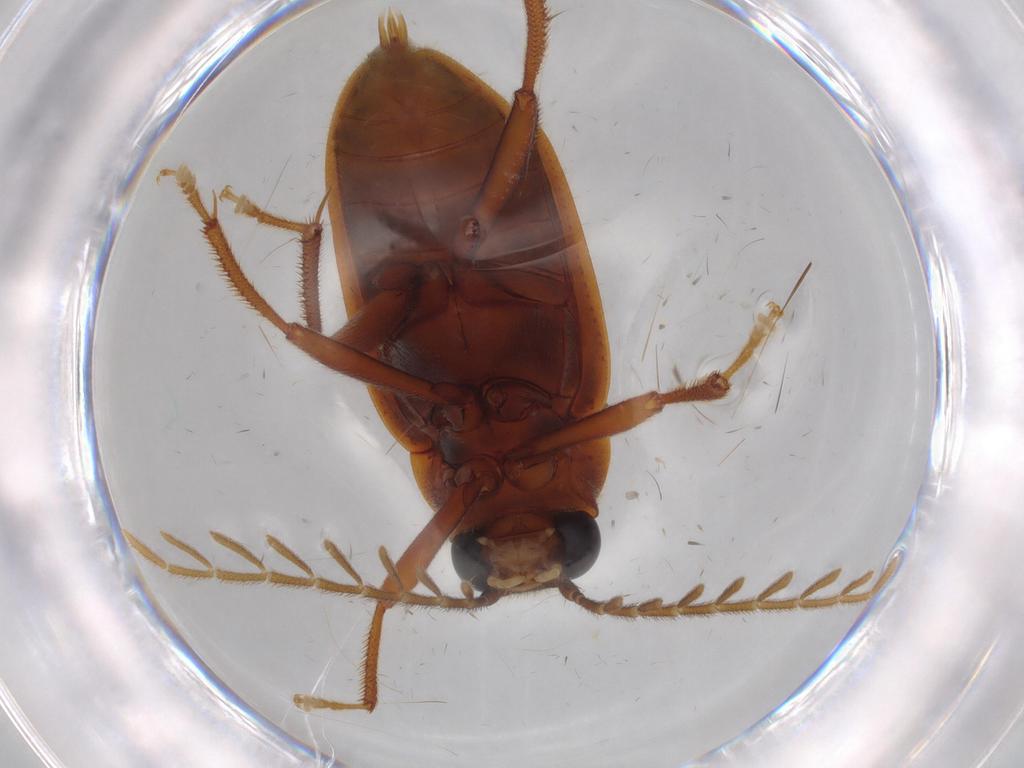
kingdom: Animalia
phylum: Arthropoda
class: Insecta
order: Coleoptera
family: Ptilodactylidae
